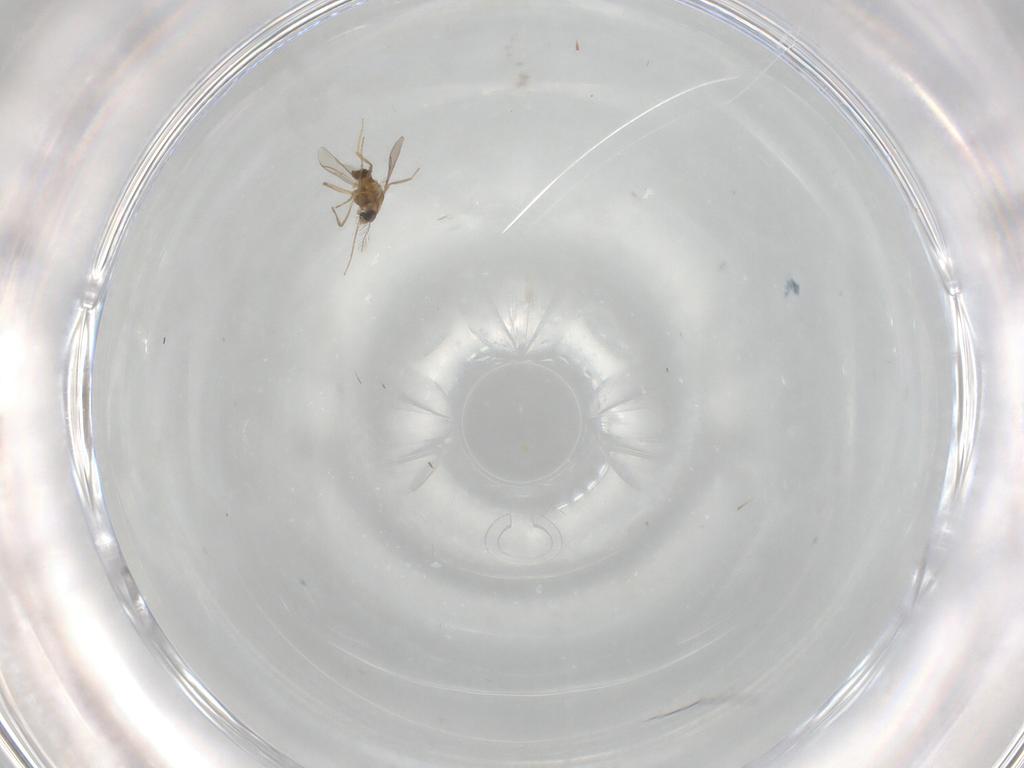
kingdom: Animalia
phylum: Arthropoda
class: Insecta
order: Diptera
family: Chironomidae
